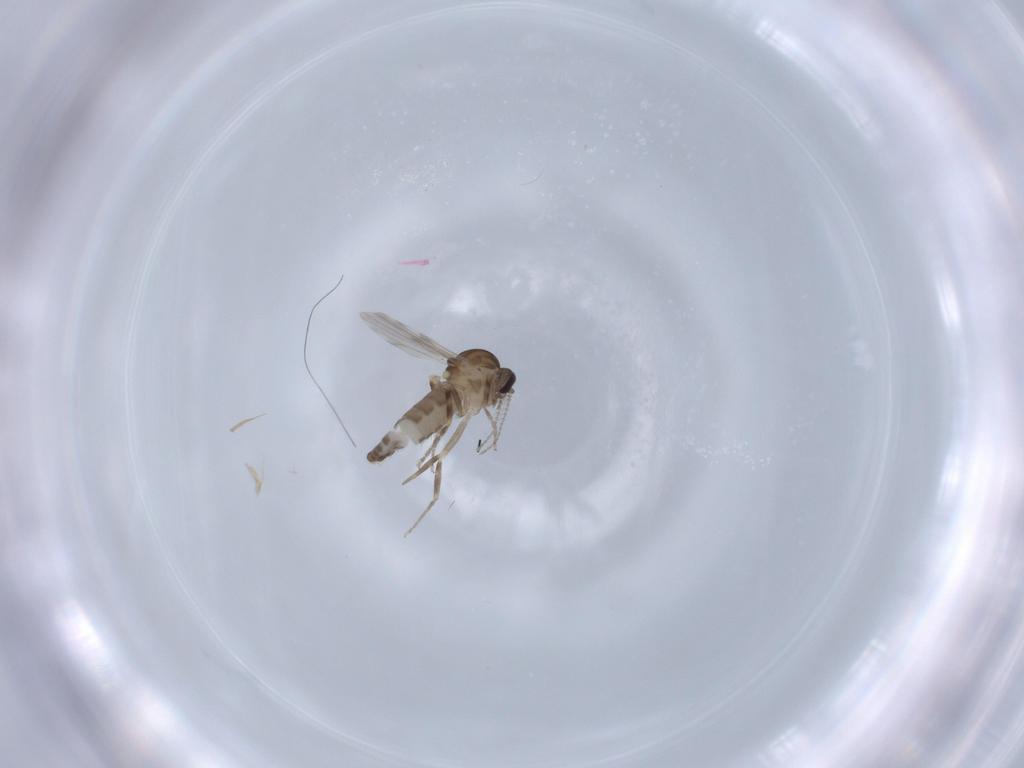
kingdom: Animalia
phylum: Arthropoda
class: Insecta
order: Diptera
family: Ceratopogonidae
